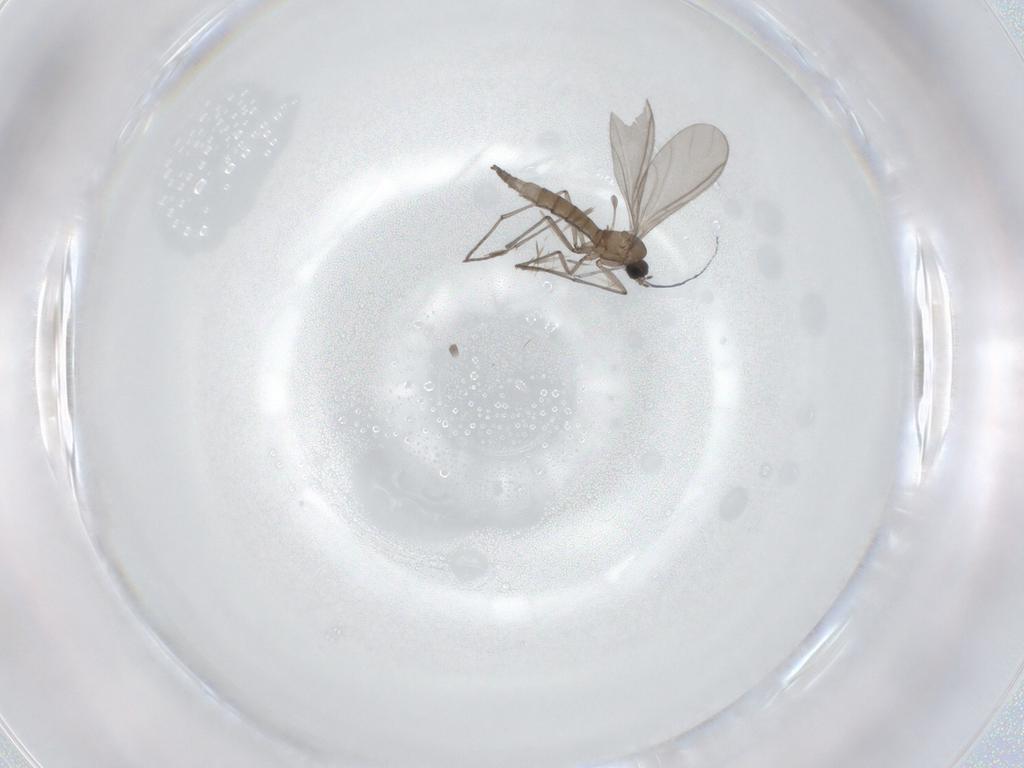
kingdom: Animalia
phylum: Arthropoda
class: Insecta
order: Diptera
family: Sciaridae
